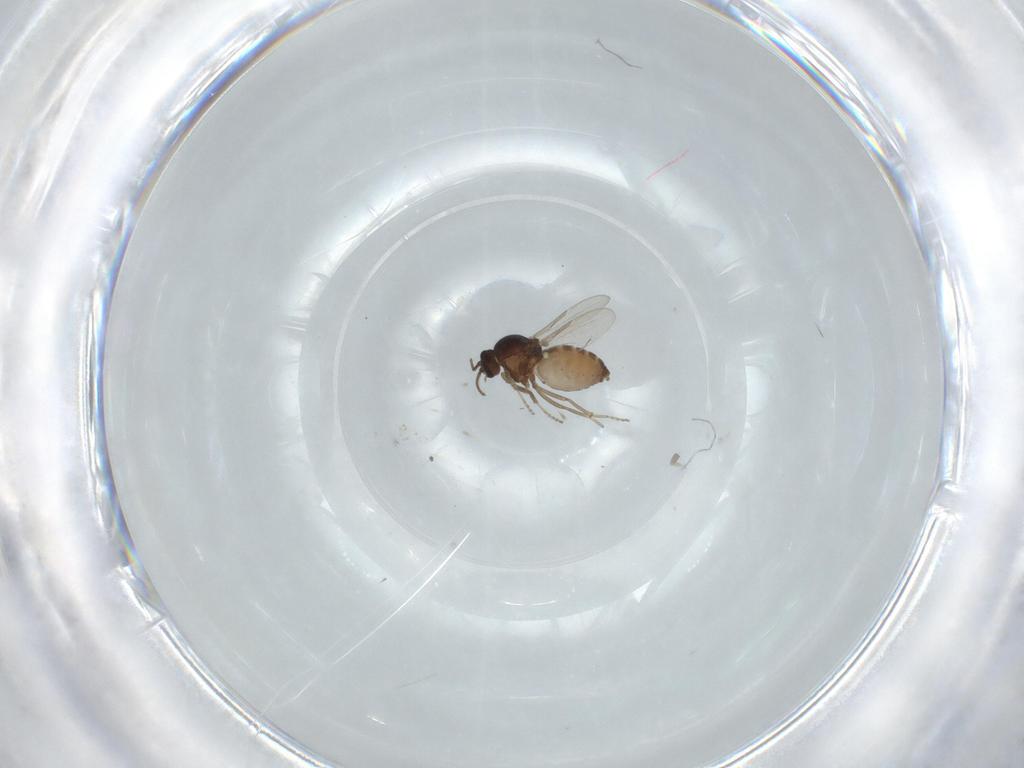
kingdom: Animalia
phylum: Arthropoda
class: Insecta
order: Diptera
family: Ceratopogonidae
